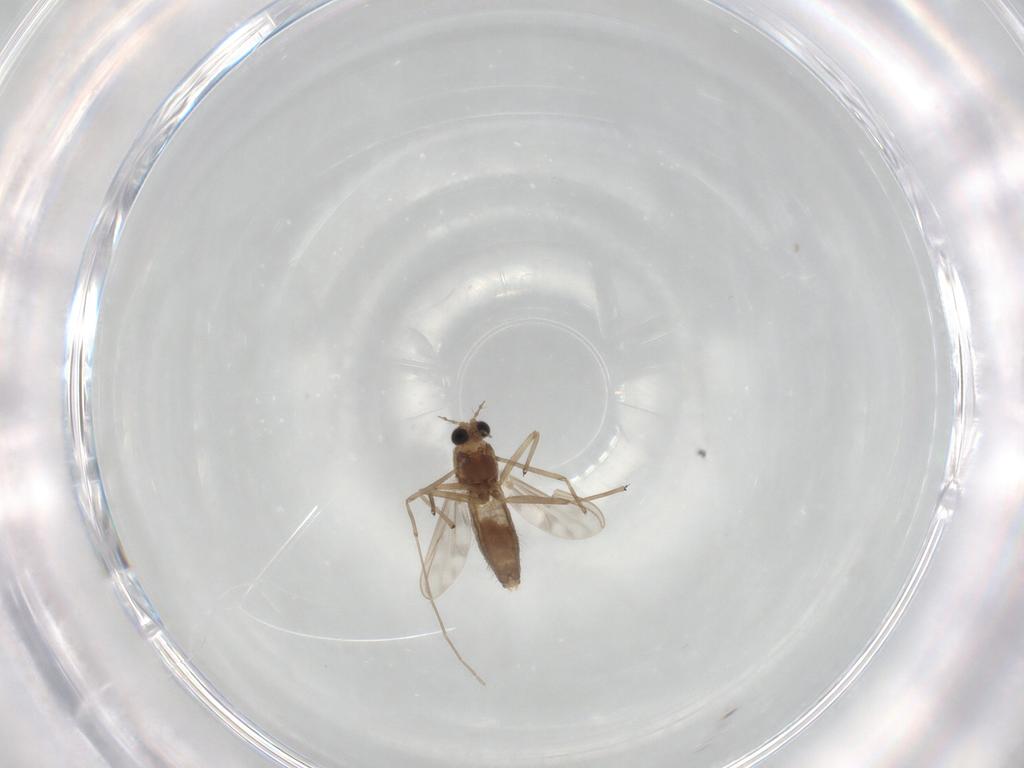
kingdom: Animalia
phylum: Arthropoda
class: Insecta
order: Diptera
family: Chironomidae
